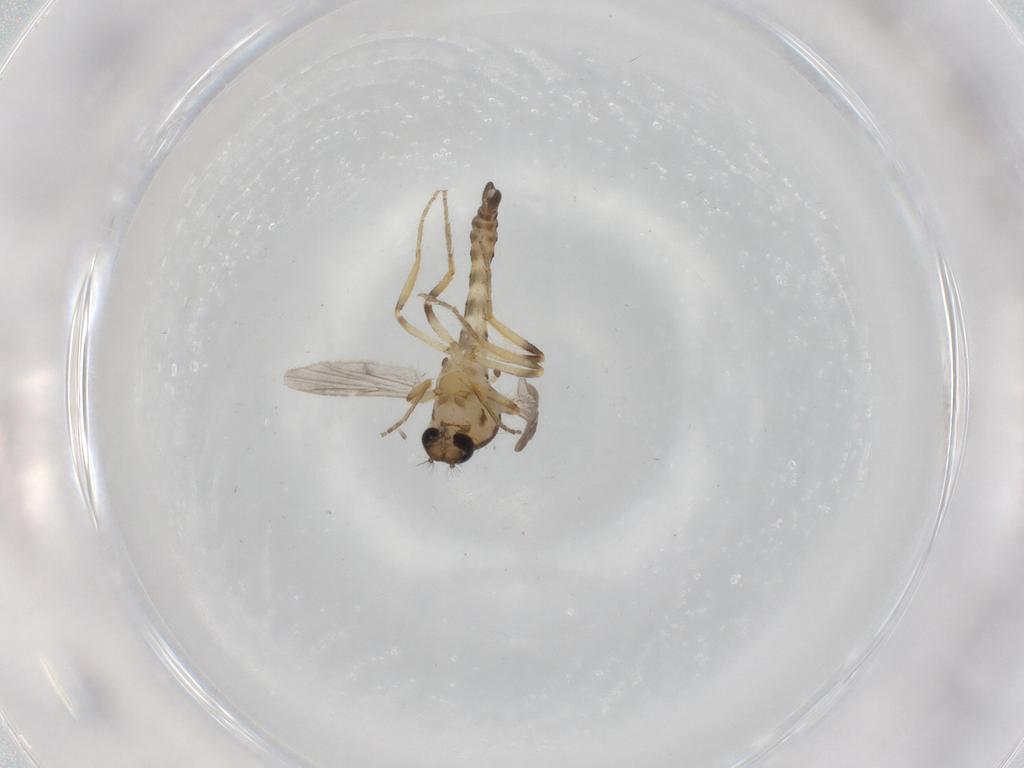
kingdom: Animalia
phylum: Arthropoda
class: Insecta
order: Diptera
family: Ceratopogonidae
